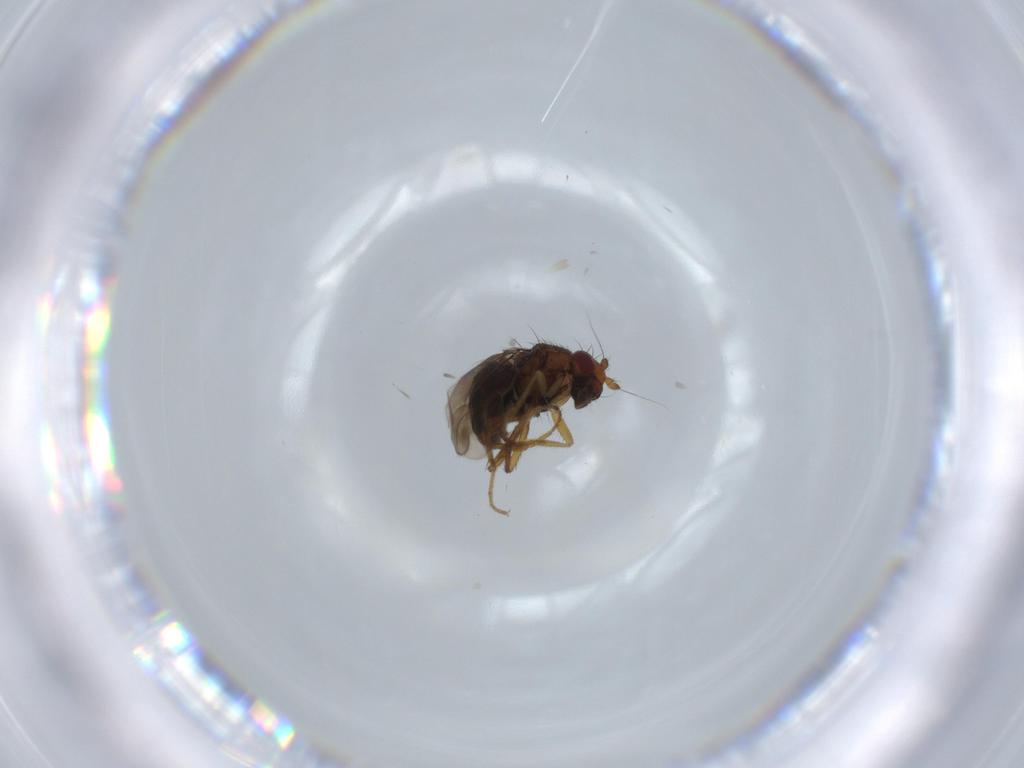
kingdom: Animalia
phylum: Arthropoda
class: Insecta
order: Diptera
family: Sphaeroceridae
